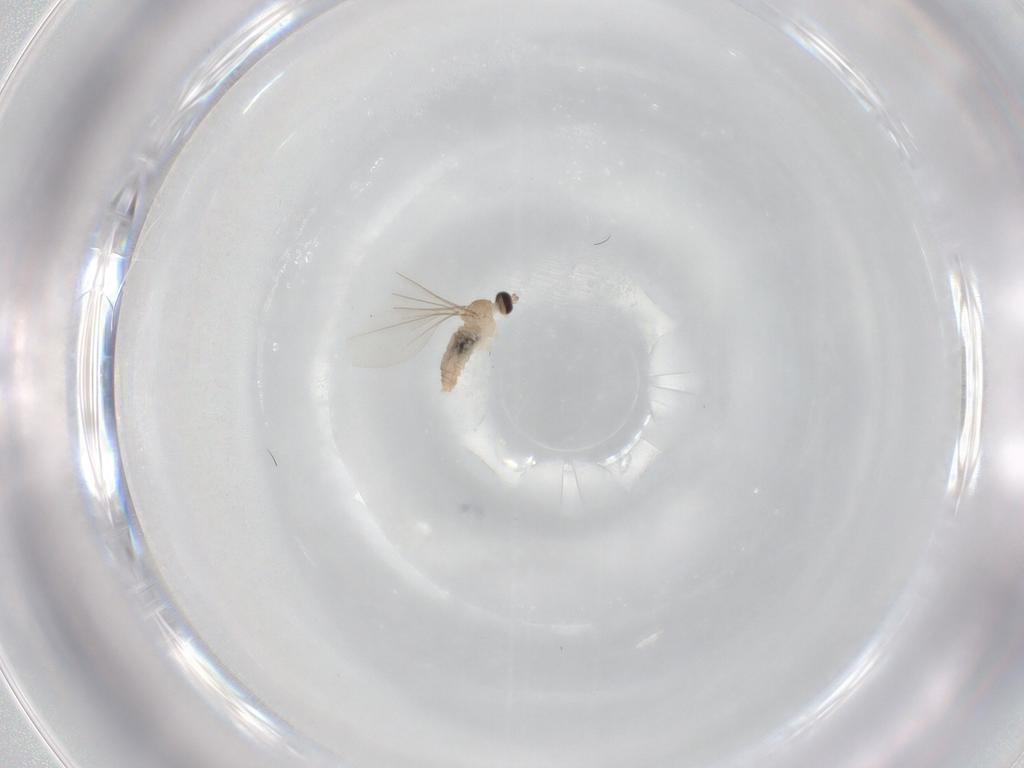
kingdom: Animalia
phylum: Arthropoda
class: Insecta
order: Diptera
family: Cecidomyiidae
